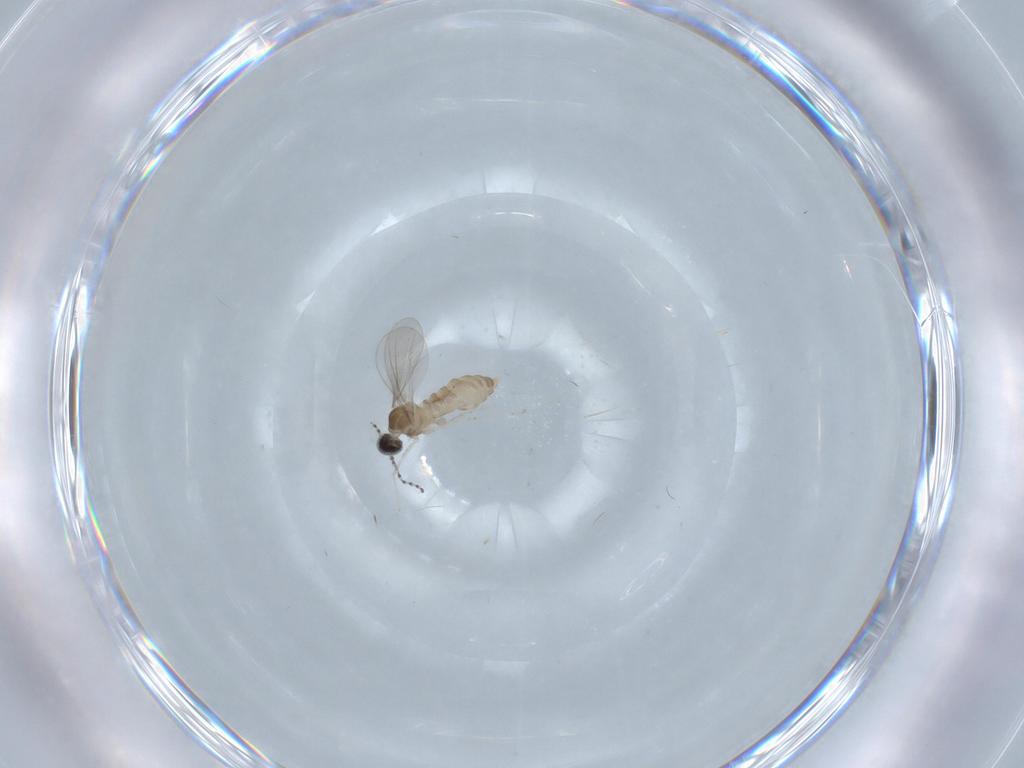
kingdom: Animalia
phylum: Arthropoda
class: Insecta
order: Diptera
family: Cecidomyiidae
